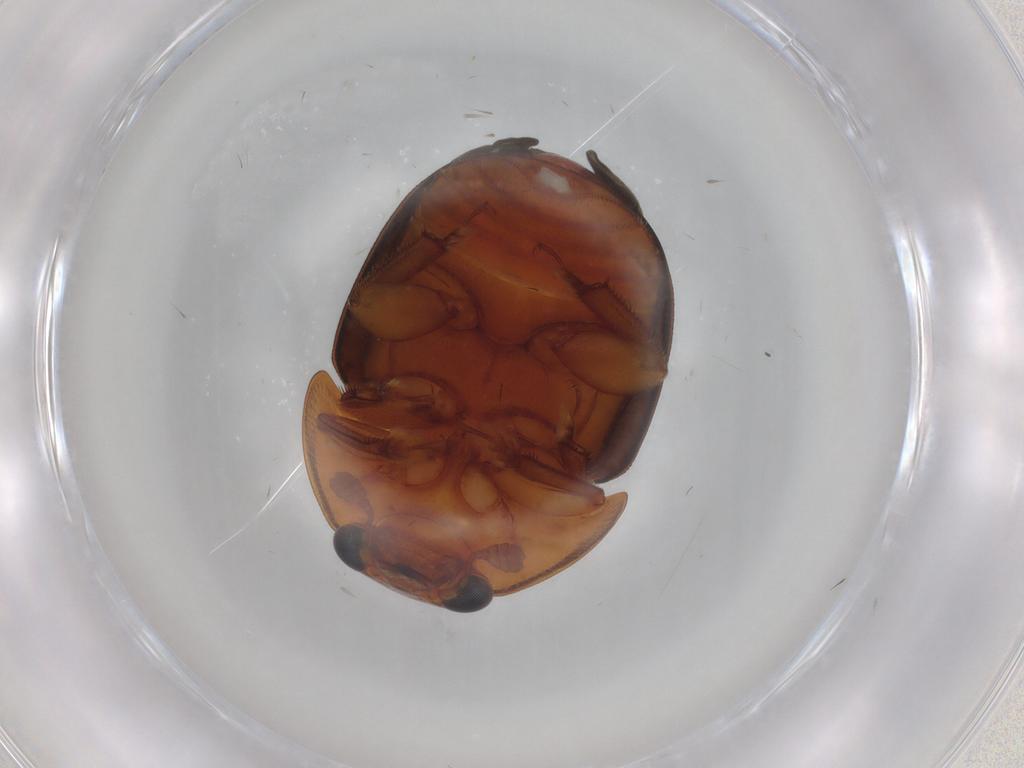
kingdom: Animalia
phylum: Arthropoda
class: Insecta
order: Coleoptera
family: Nitidulidae
